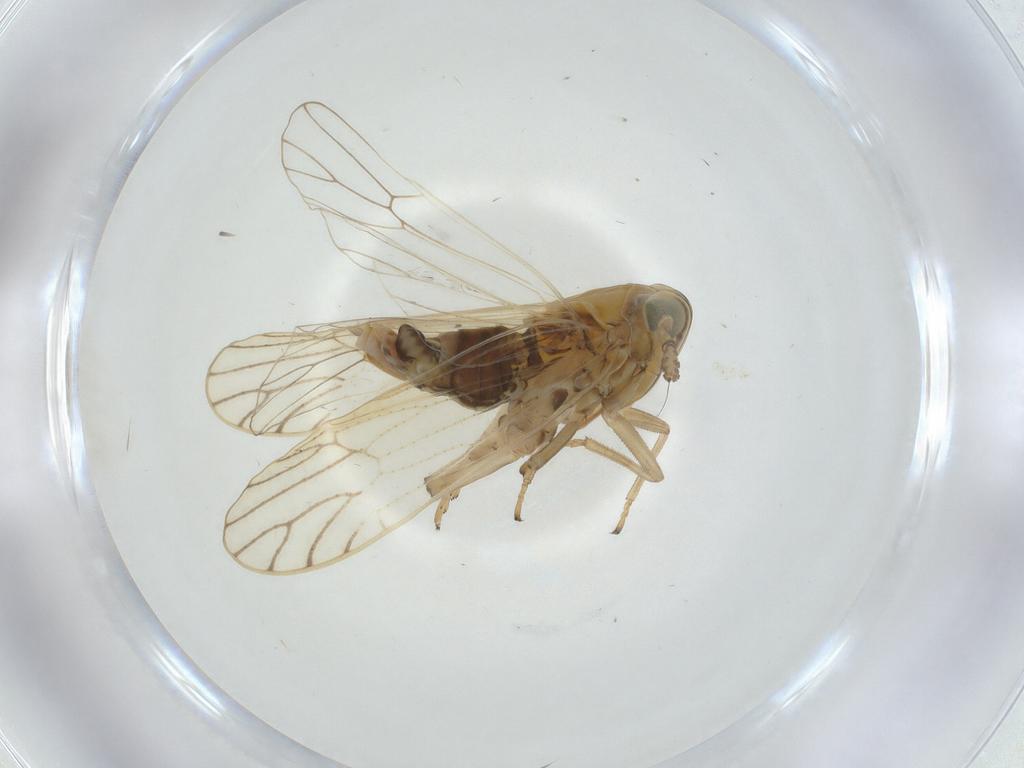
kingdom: Animalia
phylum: Arthropoda
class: Insecta
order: Hemiptera
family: Delphacidae
